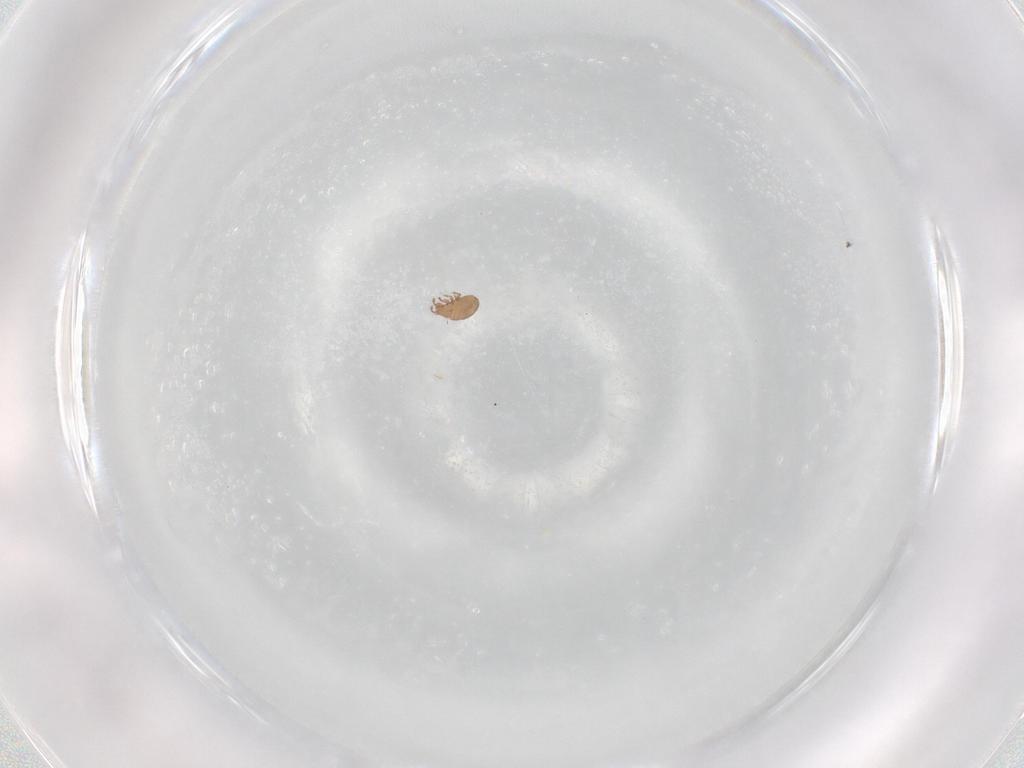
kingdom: Animalia
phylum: Arthropoda
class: Arachnida
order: Sarcoptiformes
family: Eremaeidae
